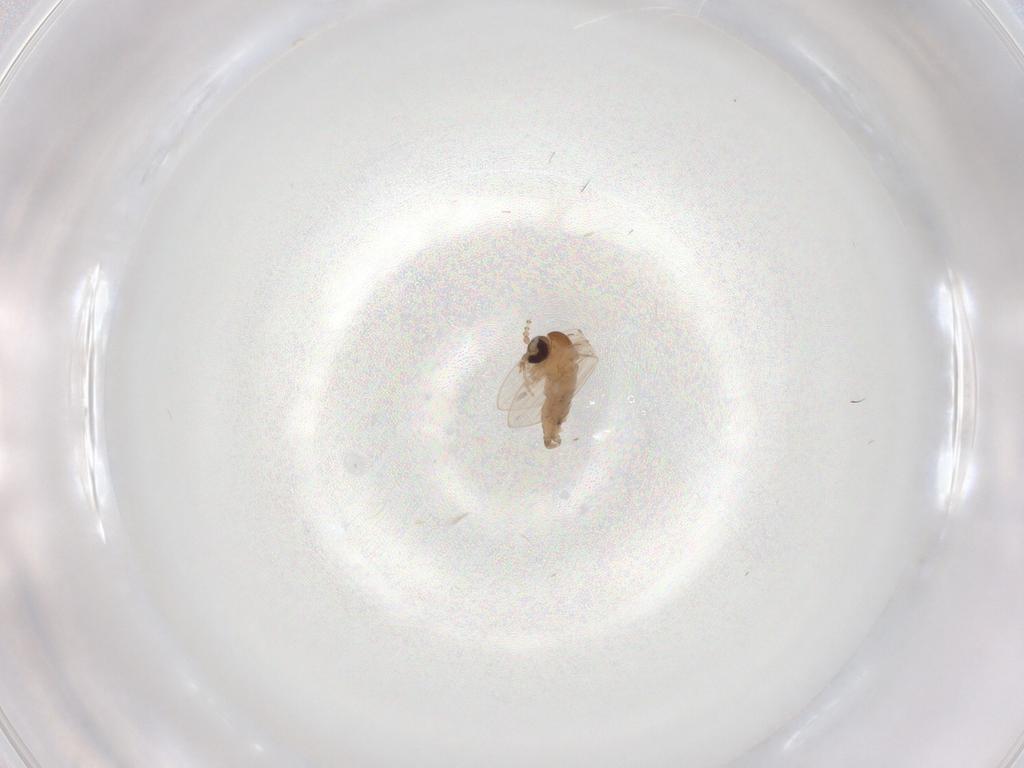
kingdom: Animalia
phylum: Arthropoda
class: Insecta
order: Diptera
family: Psychodidae
